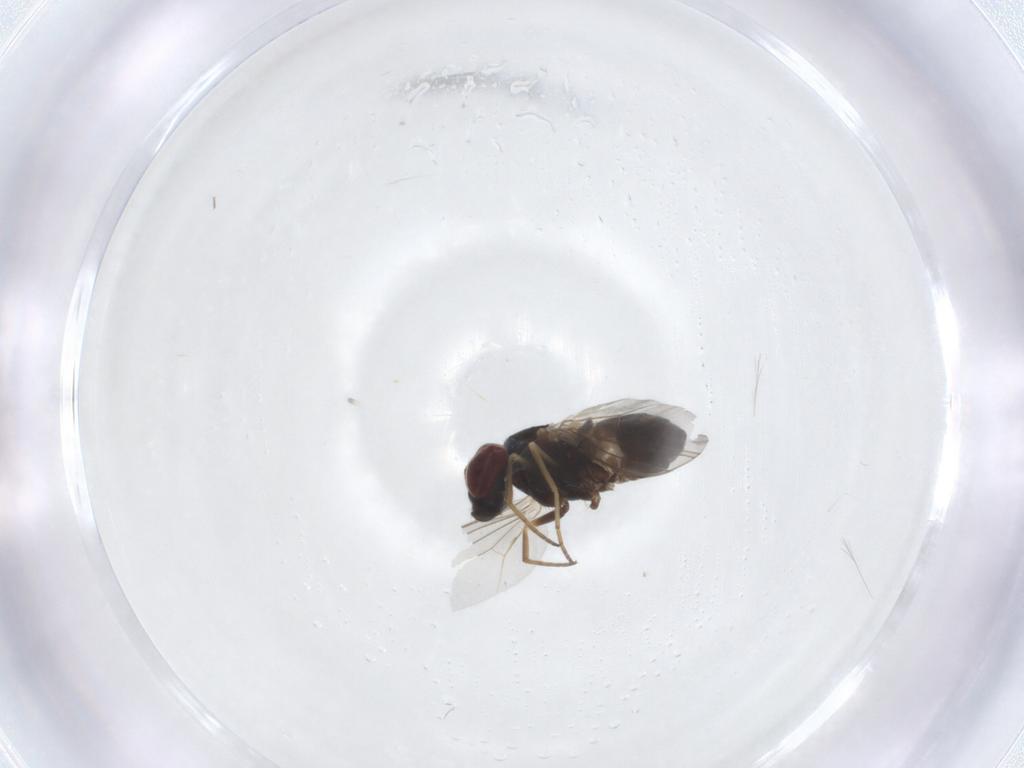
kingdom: Animalia
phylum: Arthropoda
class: Insecta
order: Diptera
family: Dolichopodidae
